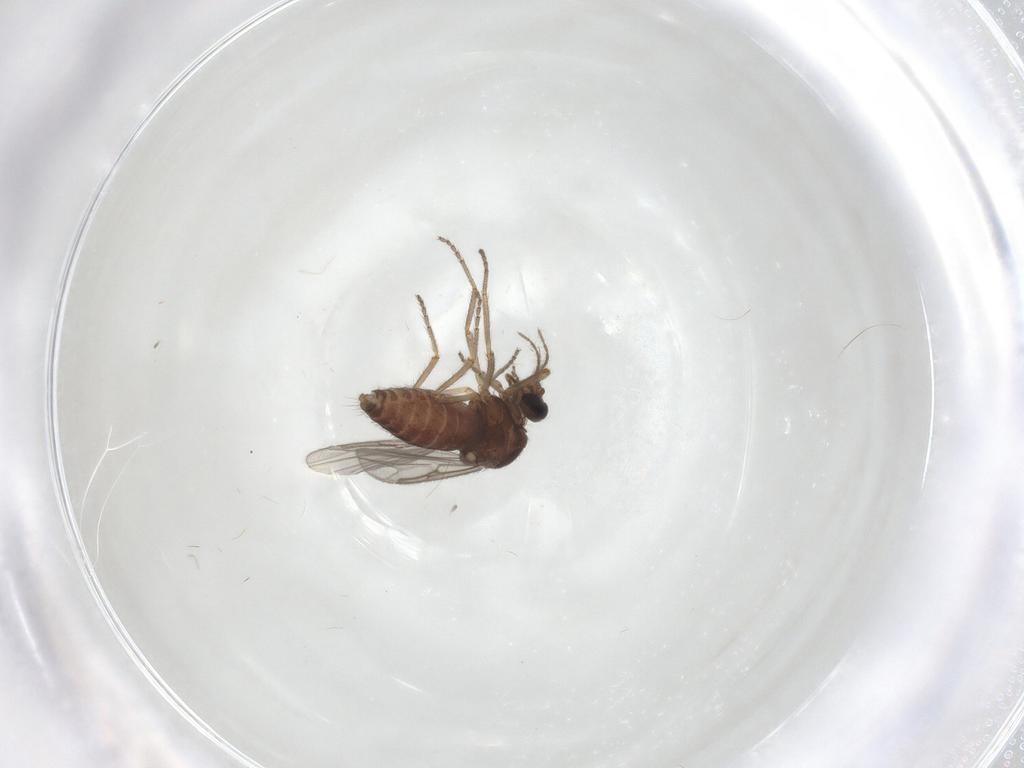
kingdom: Animalia
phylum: Arthropoda
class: Insecta
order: Diptera
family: Ceratopogonidae
